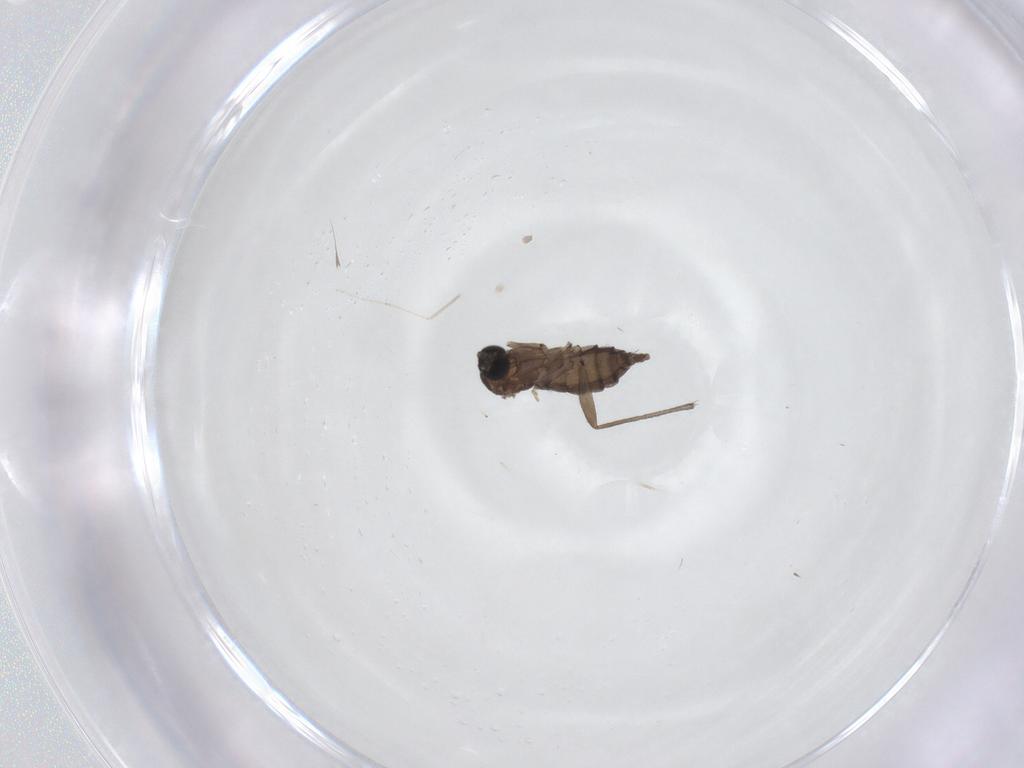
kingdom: Animalia
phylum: Arthropoda
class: Insecta
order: Diptera
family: Sciaridae
